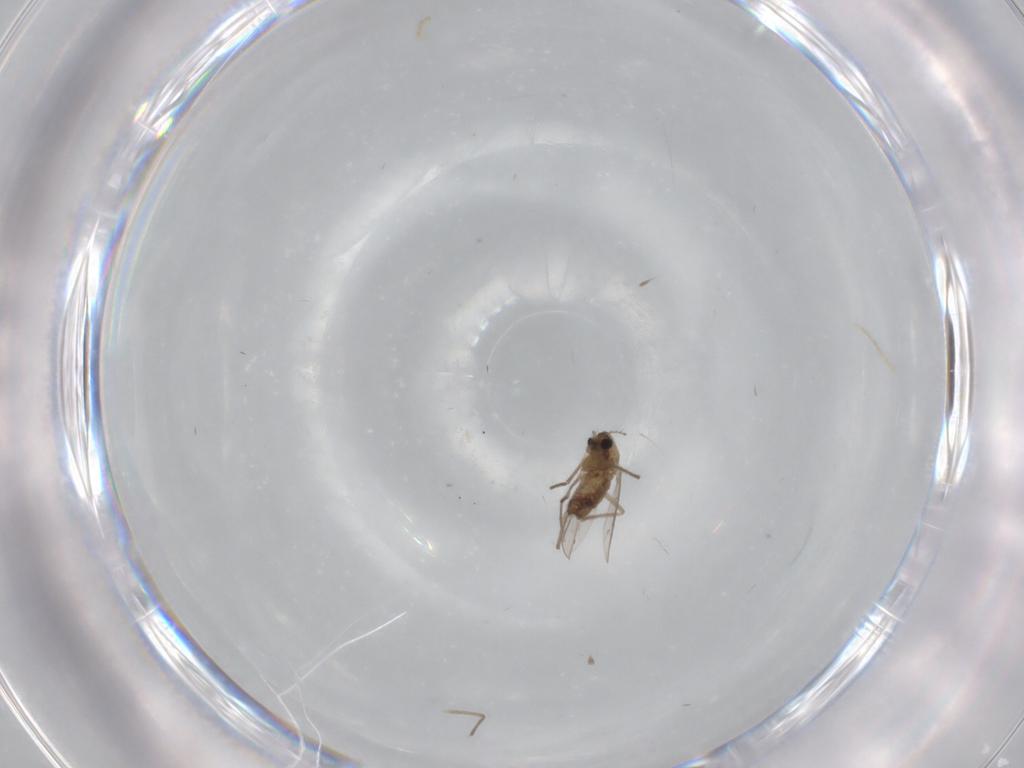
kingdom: Animalia
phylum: Arthropoda
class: Insecta
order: Diptera
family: Chironomidae
